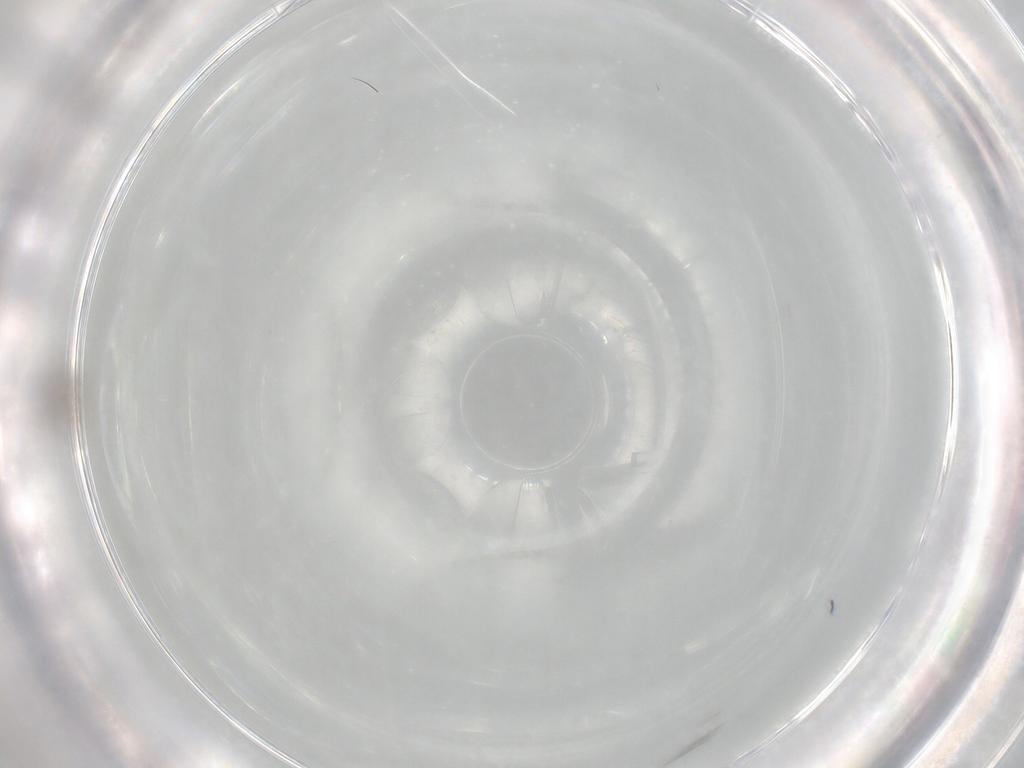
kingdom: Animalia
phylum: Arthropoda
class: Insecta
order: Hymenoptera
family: Trichogrammatidae
